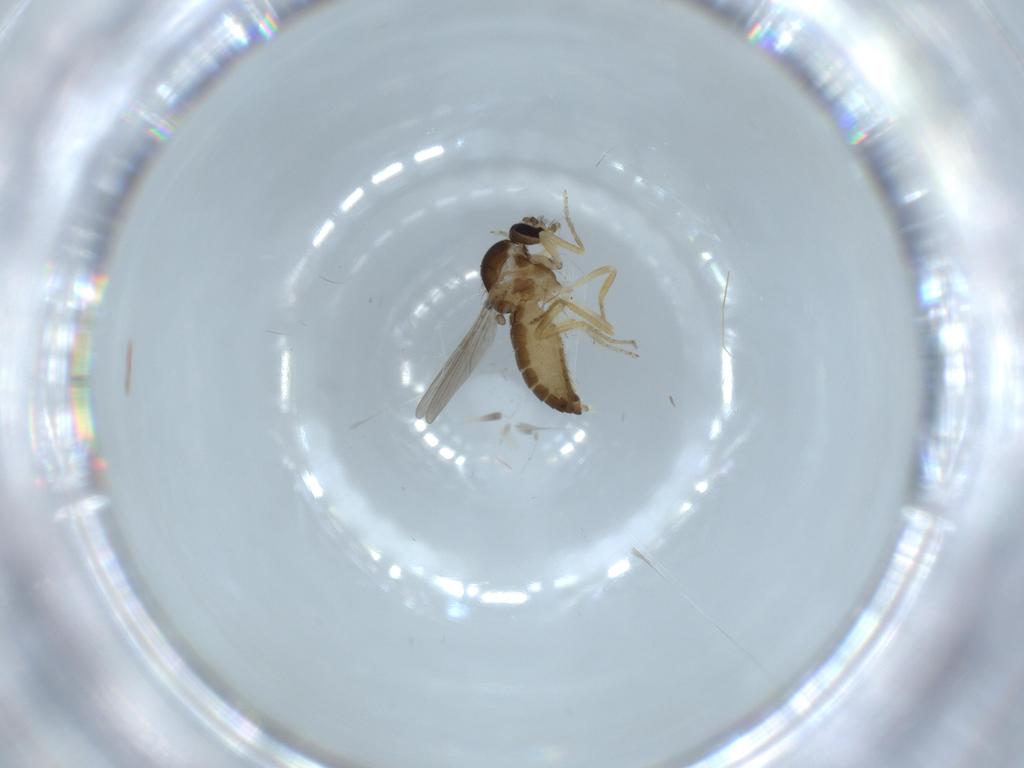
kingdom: Animalia
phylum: Arthropoda
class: Insecta
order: Diptera
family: Ceratopogonidae
